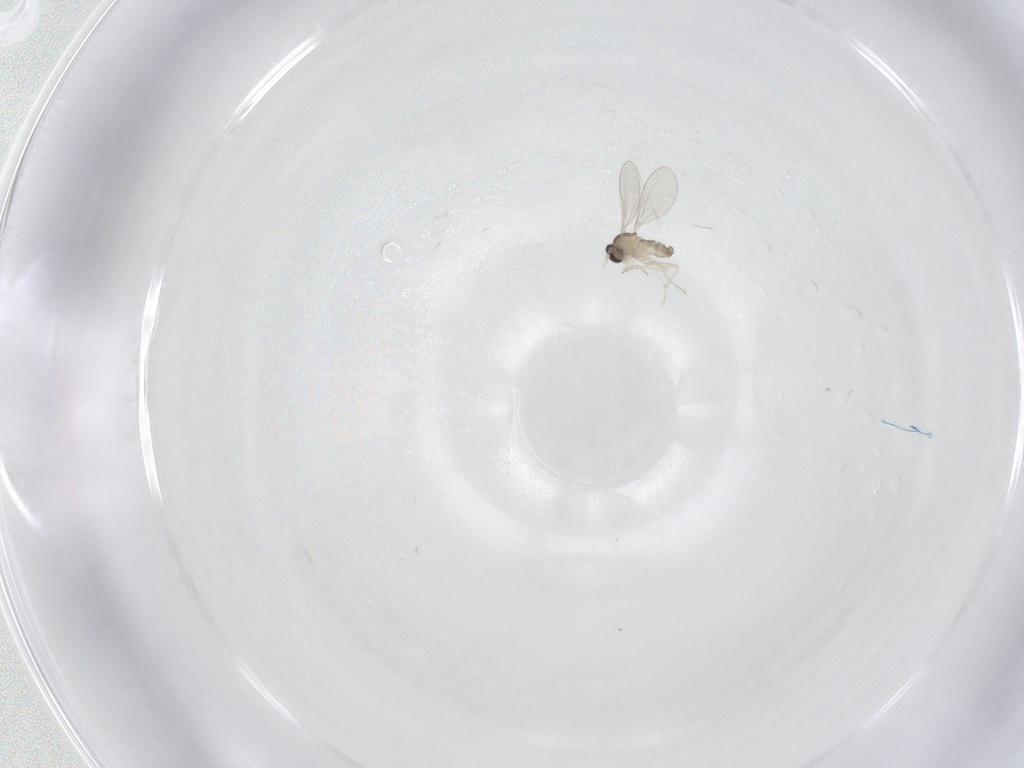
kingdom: Animalia
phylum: Arthropoda
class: Insecta
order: Diptera
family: Cecidomyiidae
